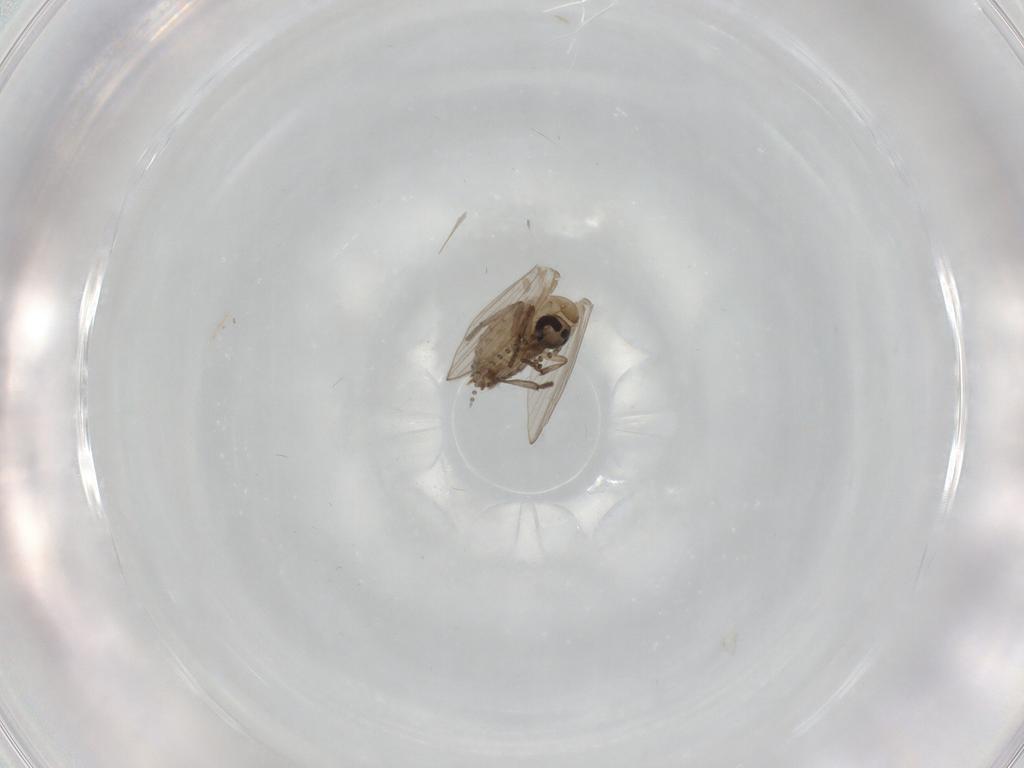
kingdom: Animalia
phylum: Arthropoda
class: Insecta
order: Diptera
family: Psychodidae
